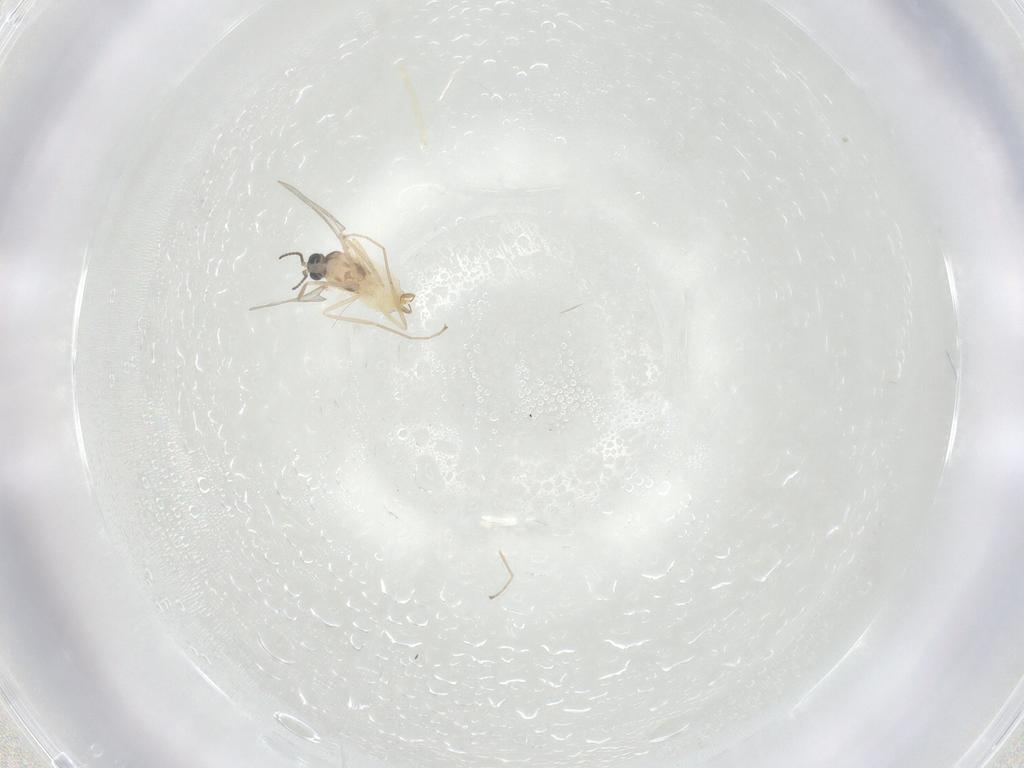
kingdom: Animalia
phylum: Arthropoda
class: Insecta
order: Diptera
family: Cecidomyiidae
